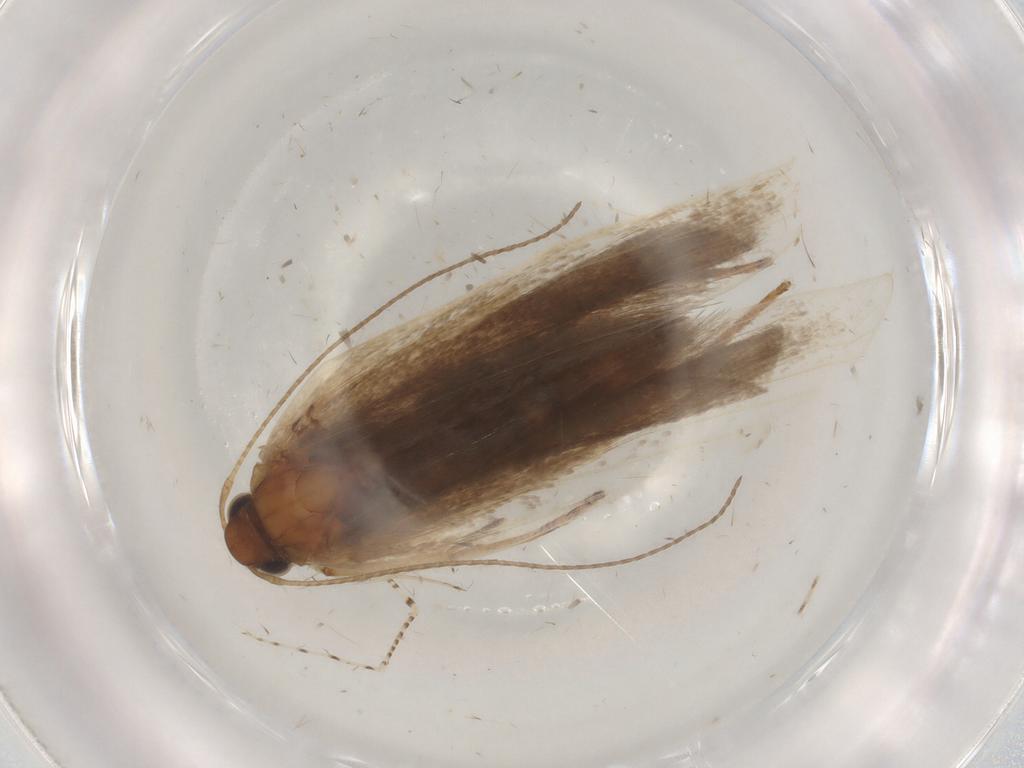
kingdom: Animalia
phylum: Arthropoda
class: Insecta
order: Lepidoptera
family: Gelechiidae
